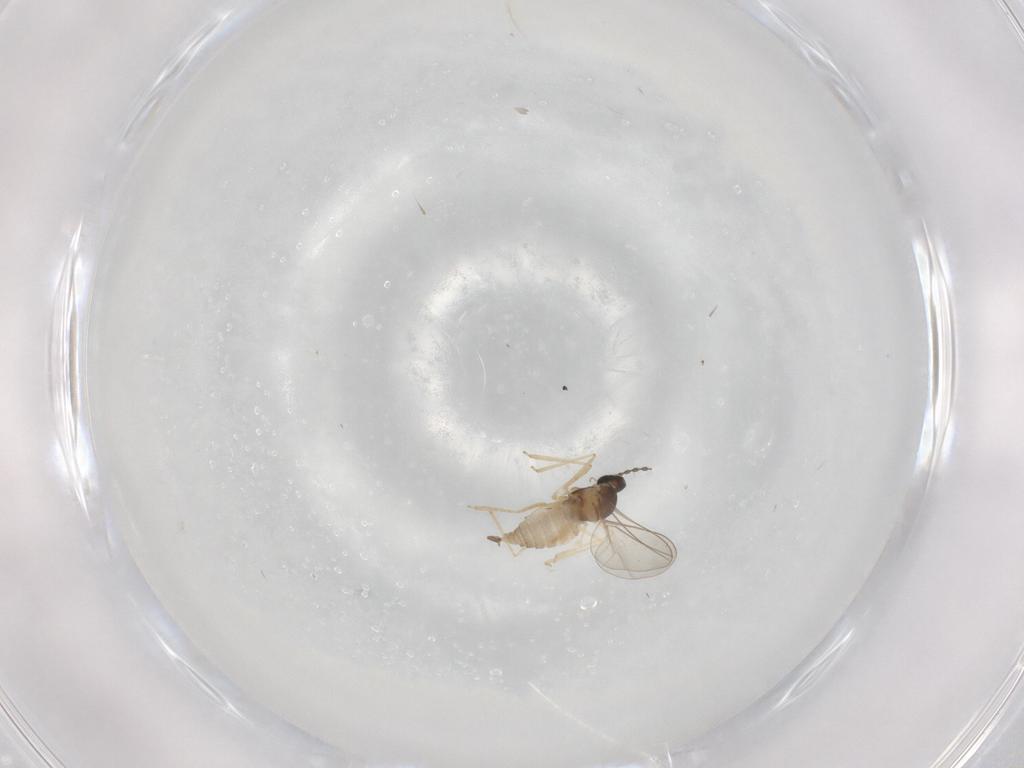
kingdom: Animalia
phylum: Arthropoda
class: Insecta
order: Diptera
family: Cecidomyiidae
